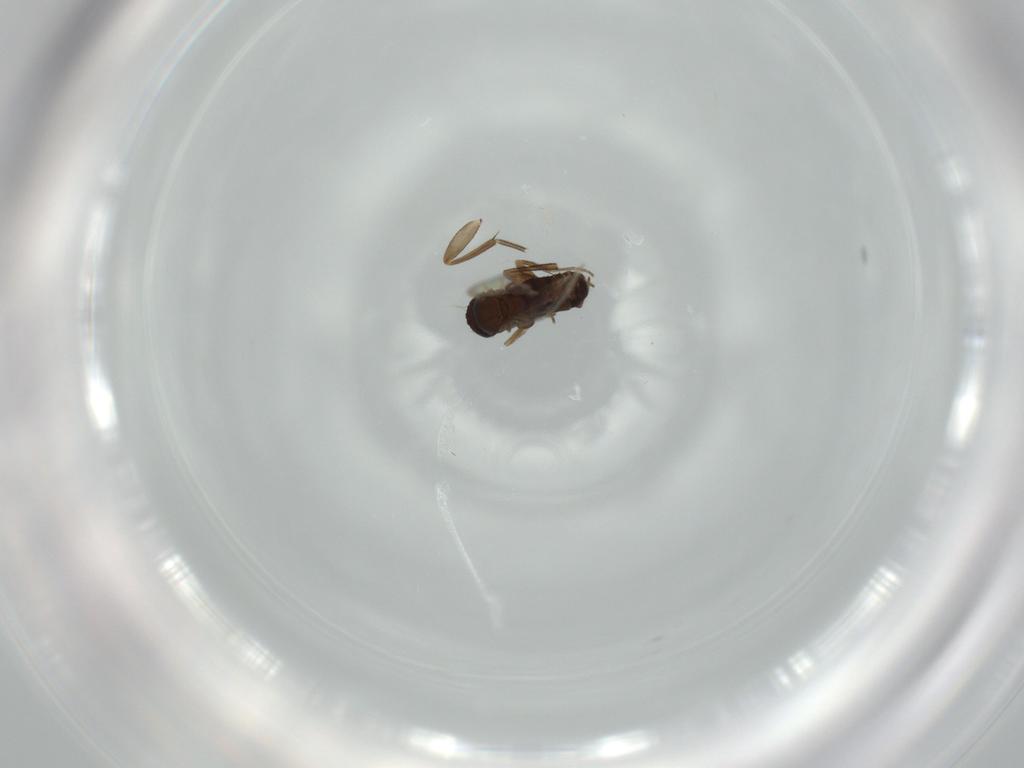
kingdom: Animalia
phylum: Arthropoda
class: Insecta
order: Diptera
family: Phoridae
